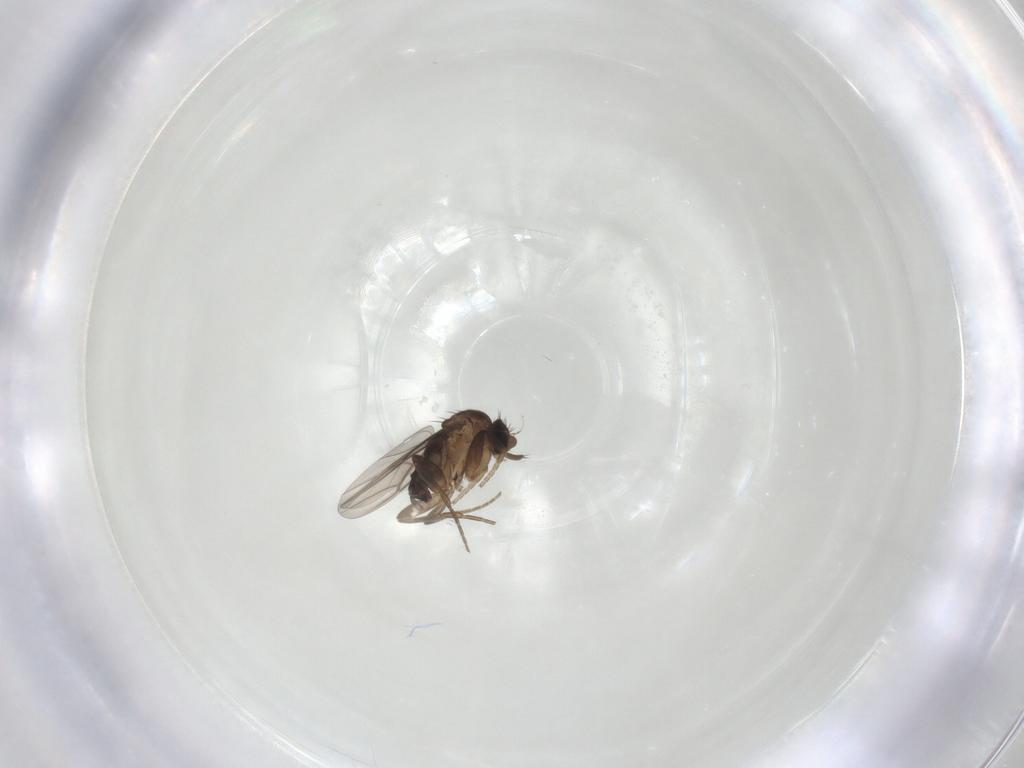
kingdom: Animalia
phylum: Arthropoda
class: Insecta
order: Diptera
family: Phoridae
